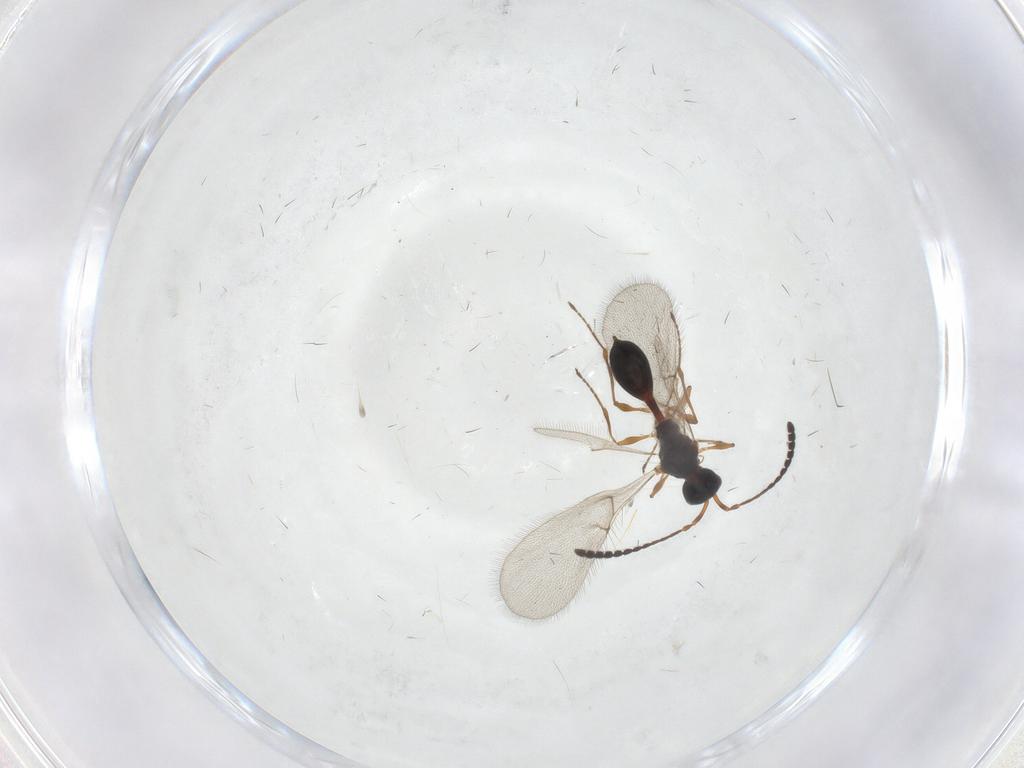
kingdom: Animalia
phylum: Arthropoda
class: Insecta
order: Hymenoptera
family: Diapriidae
